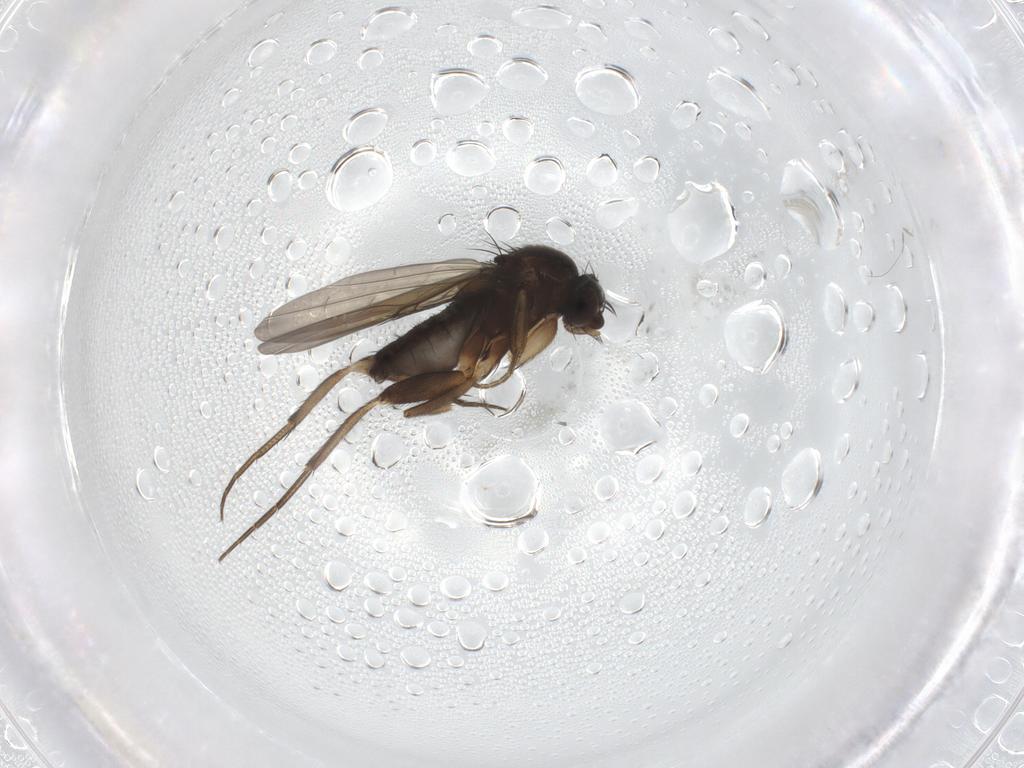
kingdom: Animalia
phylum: Arthropoda
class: Insecta
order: Diptera
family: Phoridae
